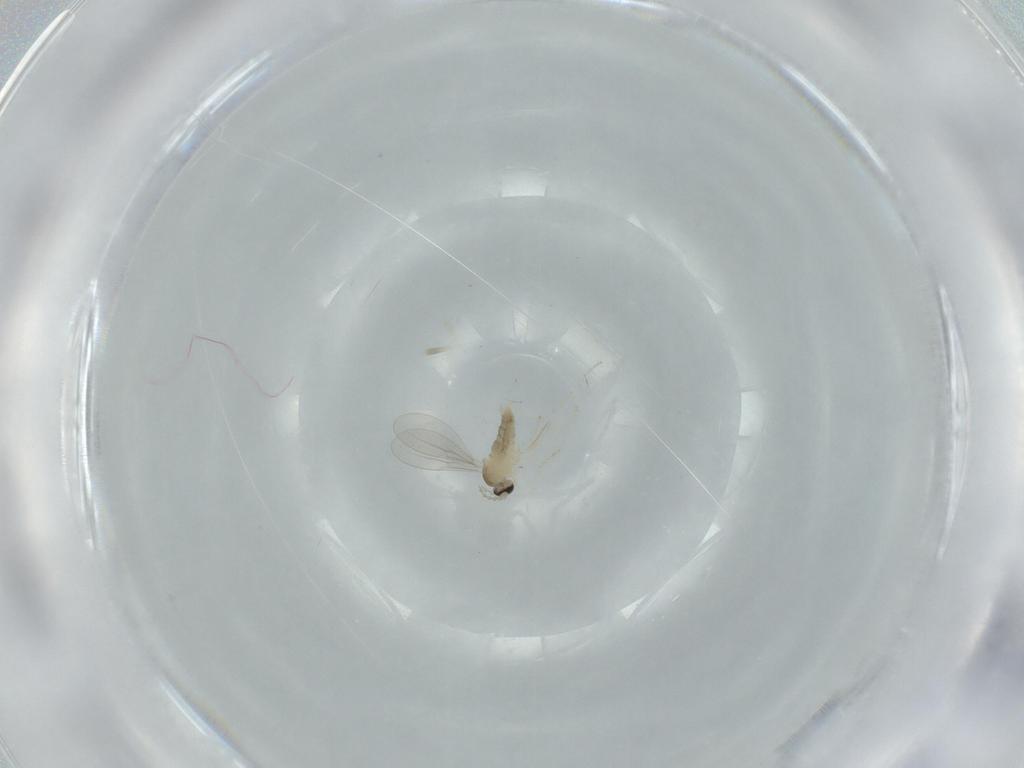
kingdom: Animalia
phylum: Arthropoda
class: Insecta
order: Diptera
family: Cecidomyiidae
